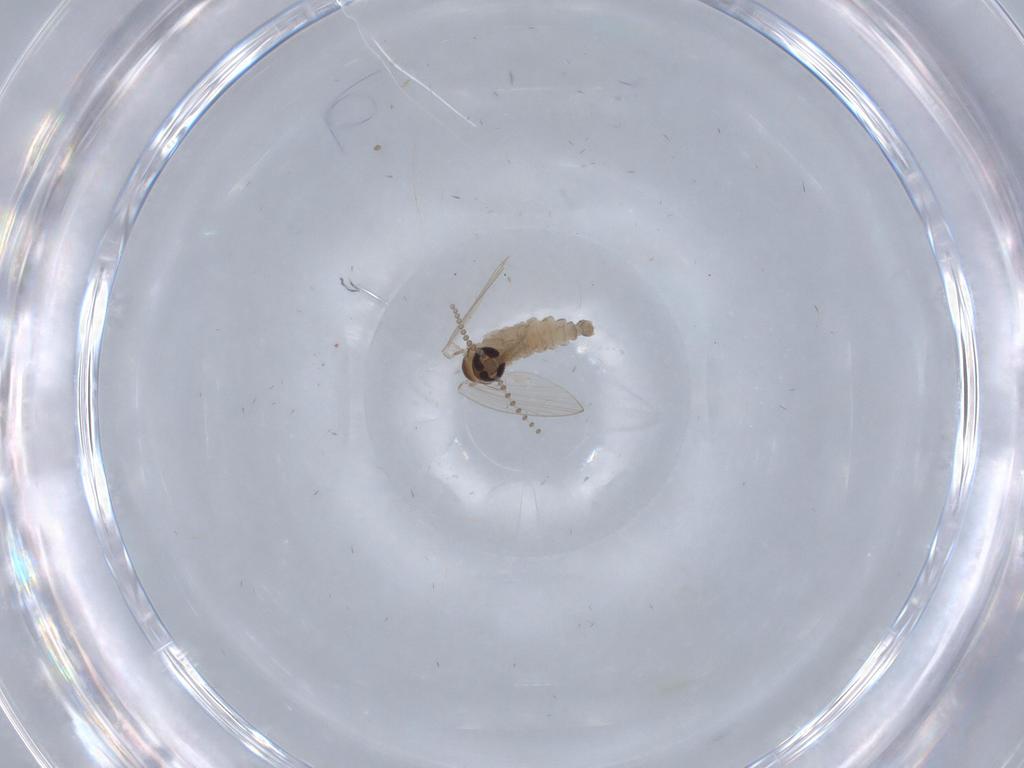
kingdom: Animalia
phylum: Arthropoda
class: Insecta
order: Diptera
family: Psychodidae
